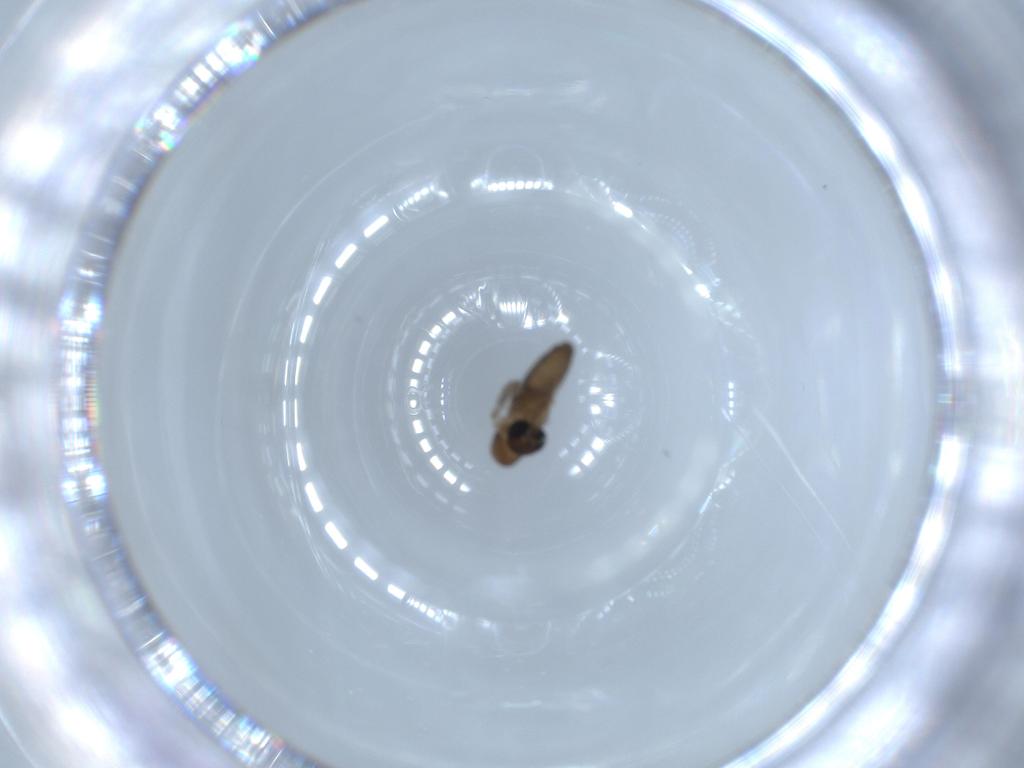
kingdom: Animalia
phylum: Arthropoda
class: Insecta
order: Diptera
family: Psychodidae
